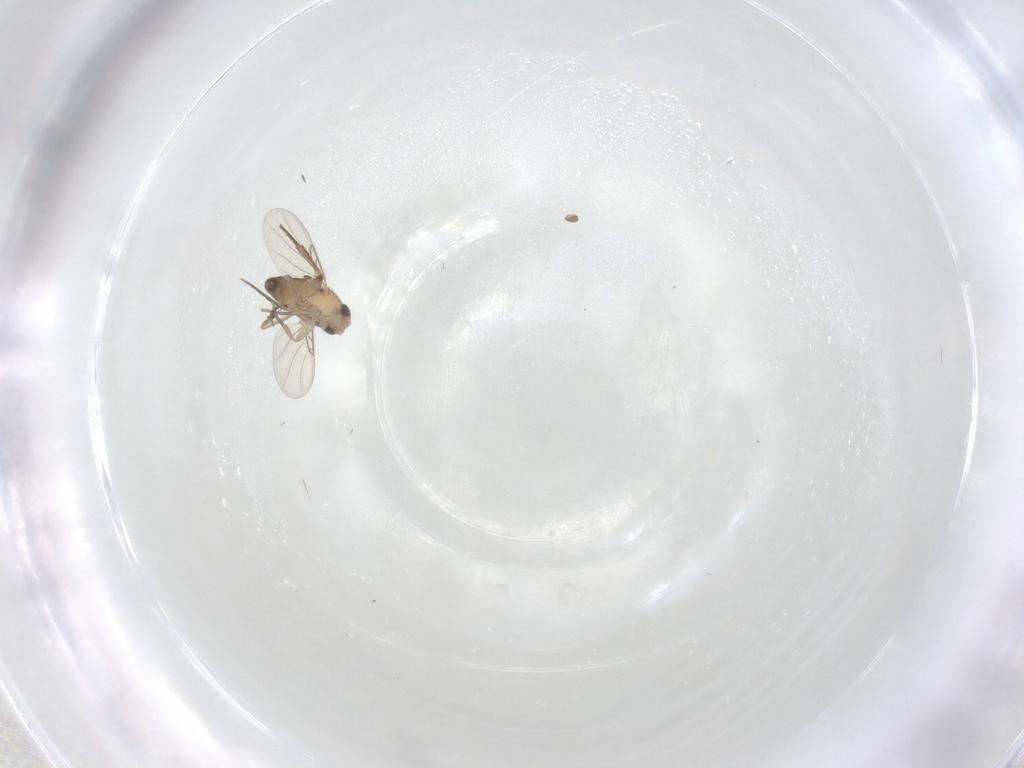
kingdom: Animalia
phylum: Arthropoda
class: Insecta
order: Diptera
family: Phoridae
